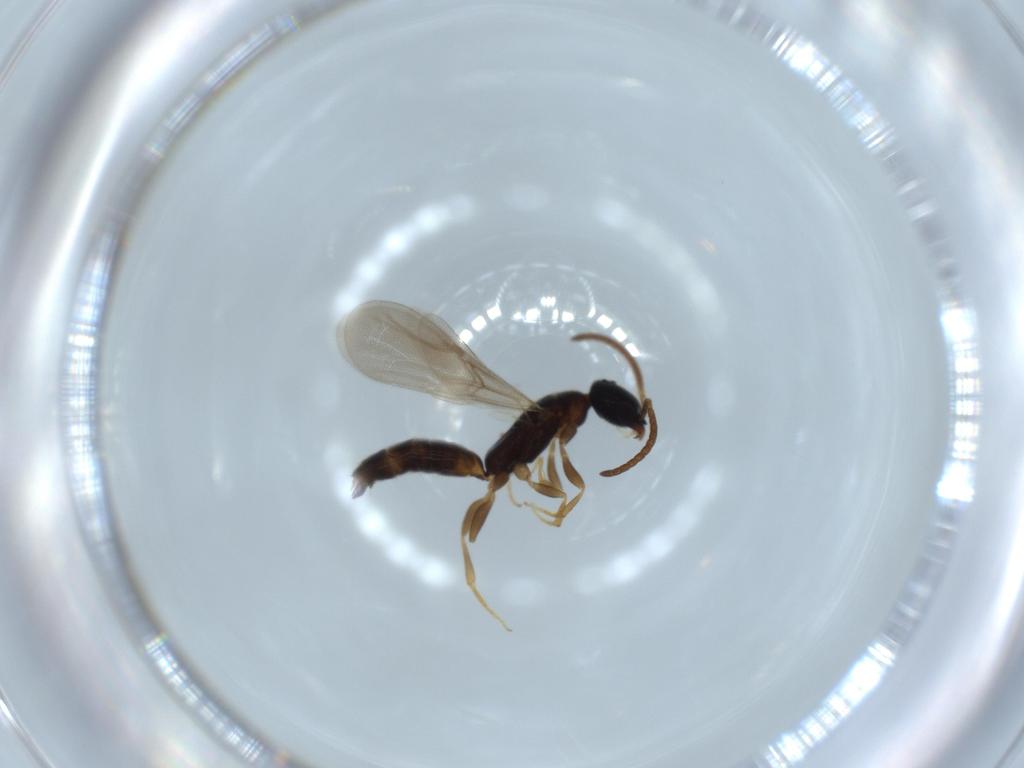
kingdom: Animalia
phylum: Arthropoda
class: Insecta
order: Hymenoptera
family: Bethylidae
